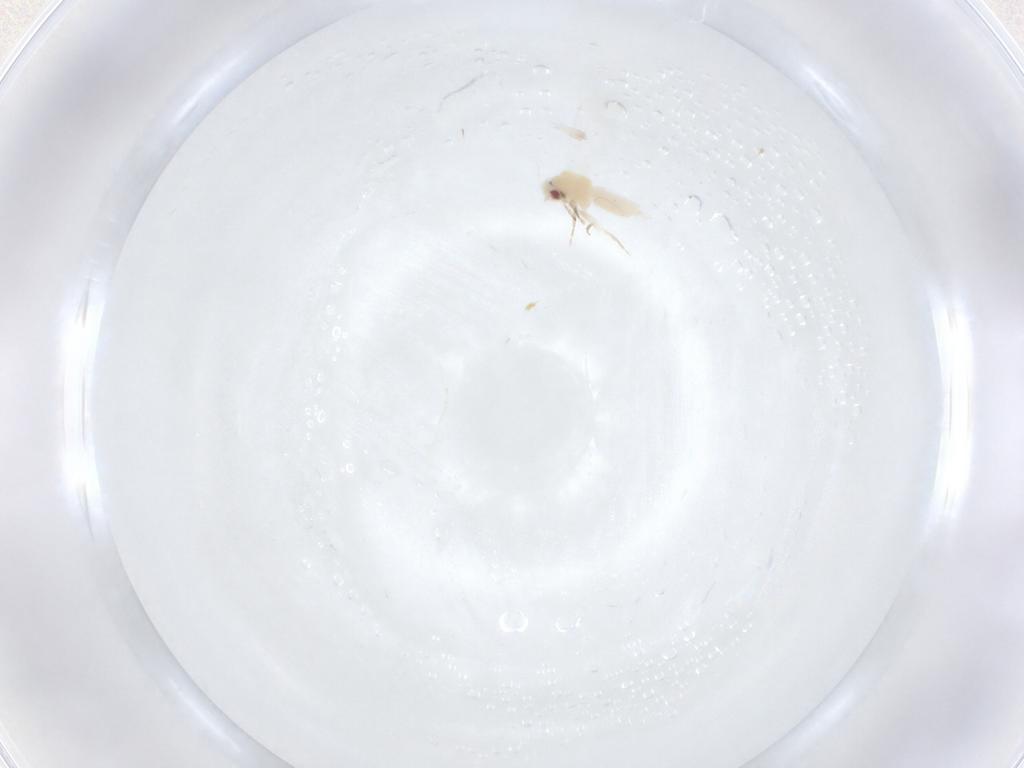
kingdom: Animalia
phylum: Arthropoda
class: Insecta
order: Hemiptera
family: Aleyrodidae
